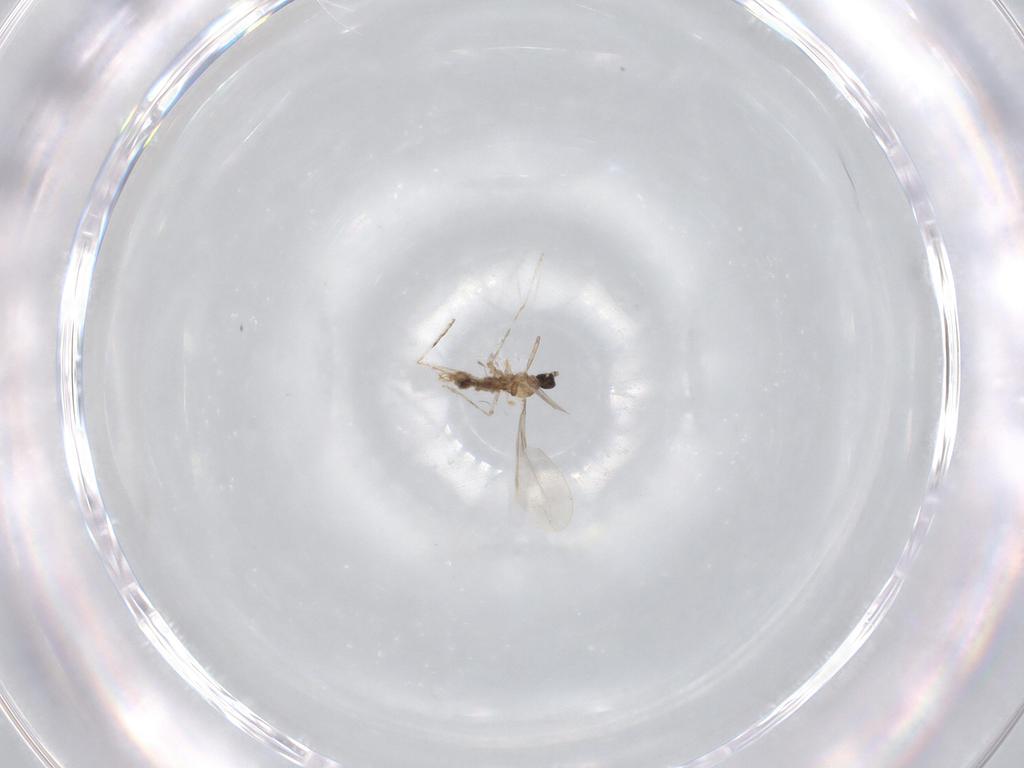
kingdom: Animalia
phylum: Arthropoda
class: Insecta
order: Diptera
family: Cecidomyiidae
